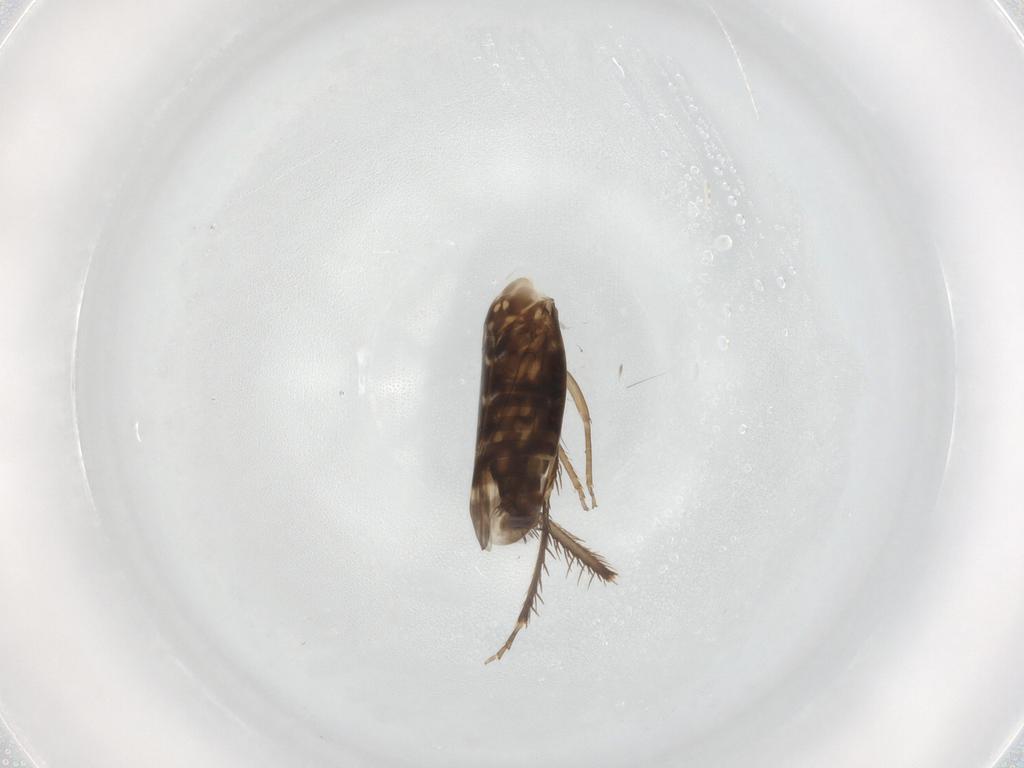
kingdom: Animalia
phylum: Arthropoda
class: Insecta
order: Hemiptera
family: Cicadellidae
